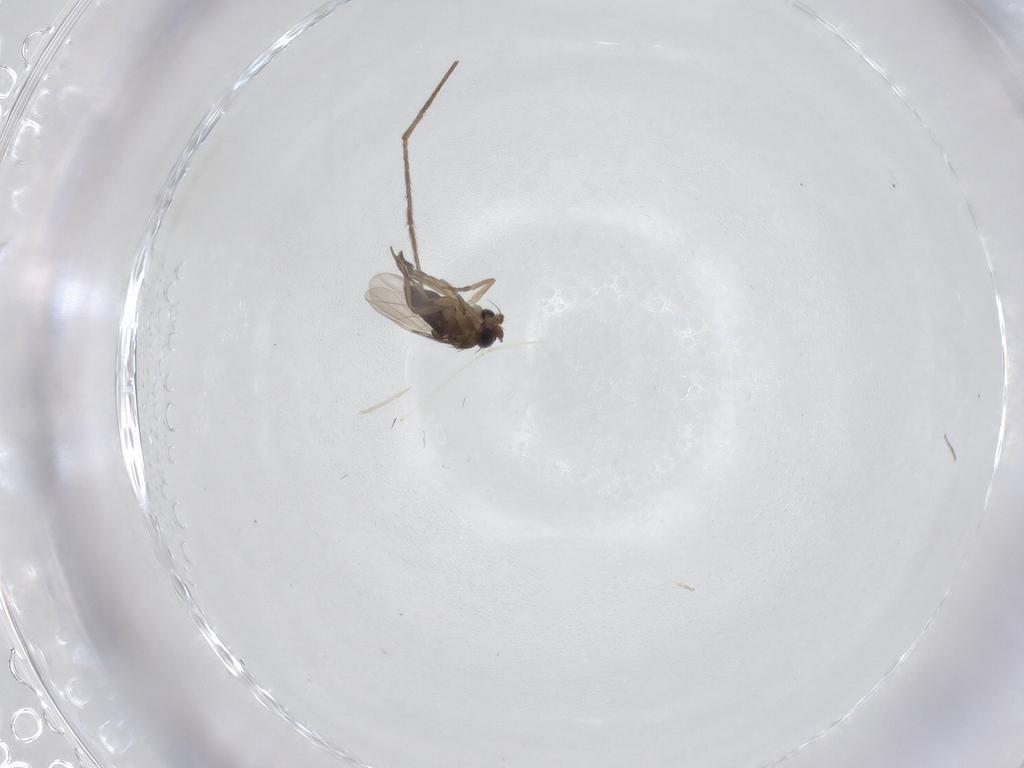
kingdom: Animalia
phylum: Arthropoda
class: Insecta
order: Diptera
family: Limoniidae
